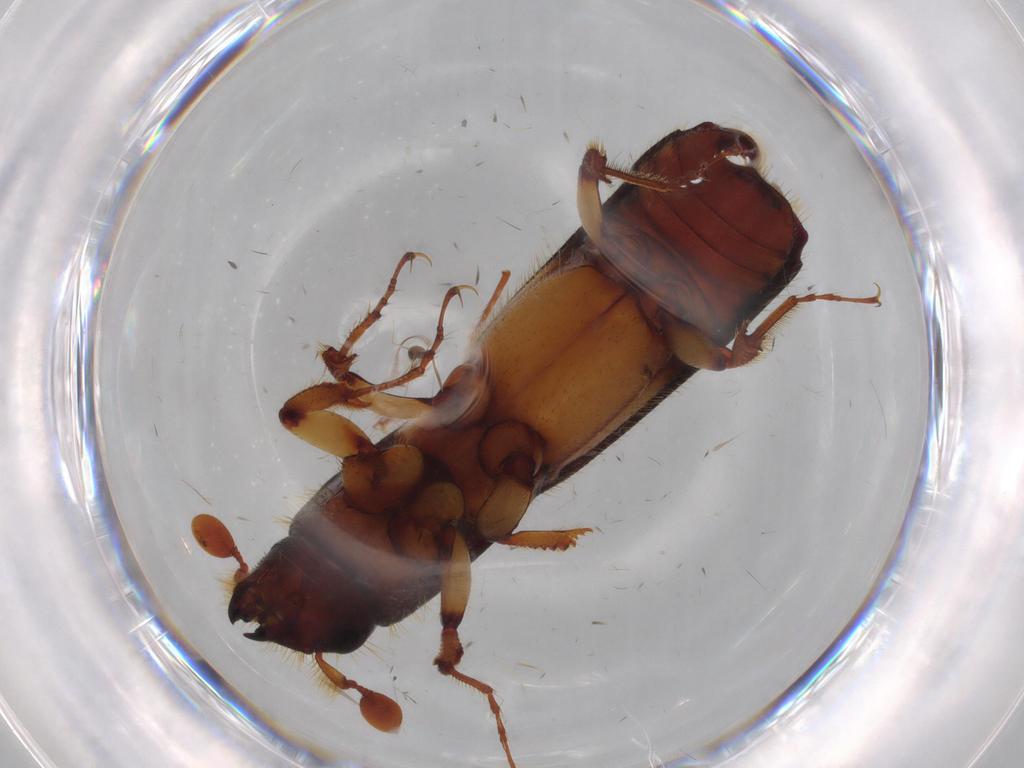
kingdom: Animalia
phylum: Arthropoda
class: Insecta
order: Coleoptera
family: Curculionidae
